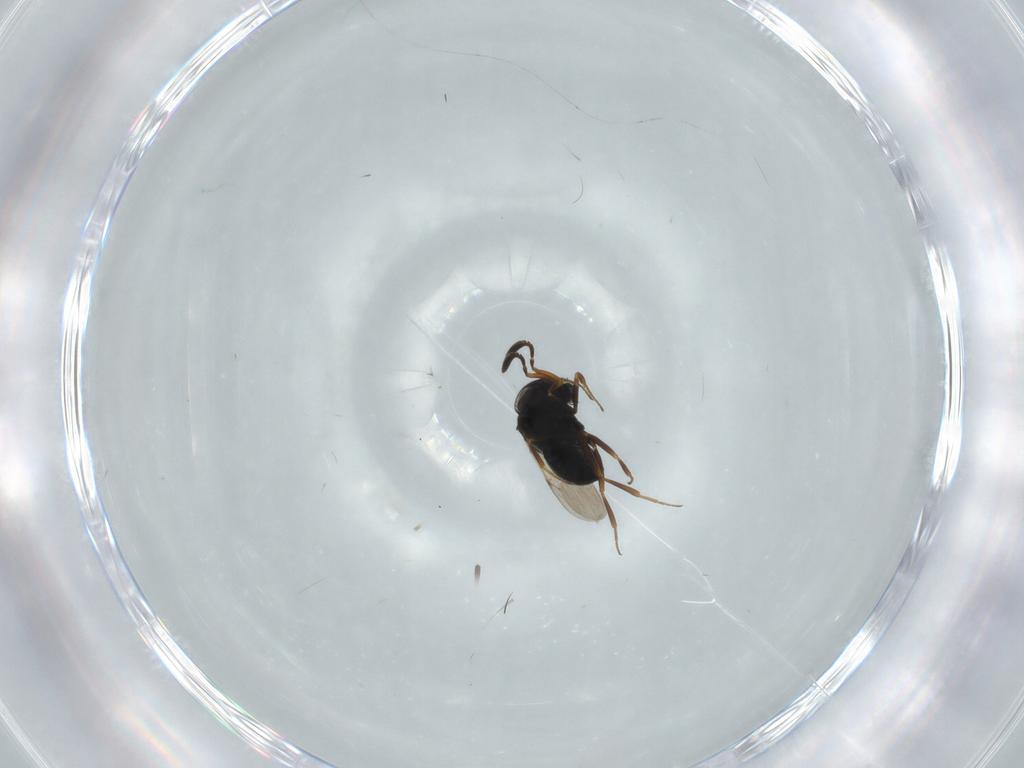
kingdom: Animalia
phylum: Arthropoda
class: Insecta
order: Hymenoptera
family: Scelionidae
